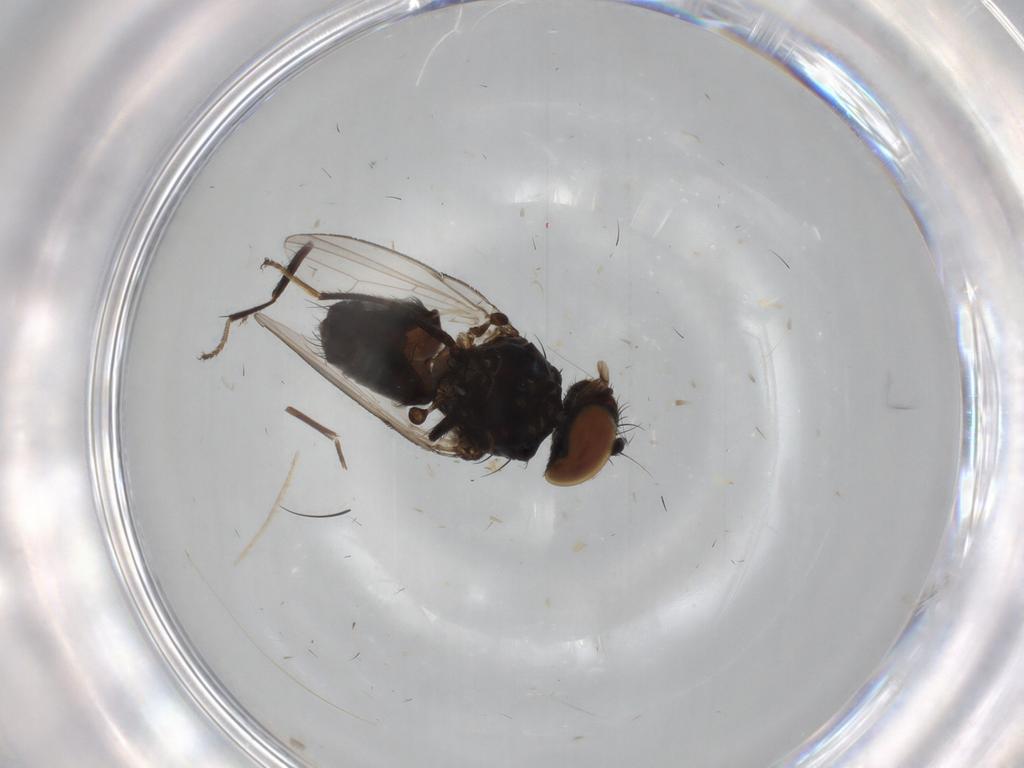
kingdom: Animalia
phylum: Arthropoda
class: Insecta
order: Diptera
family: Milichiidae
